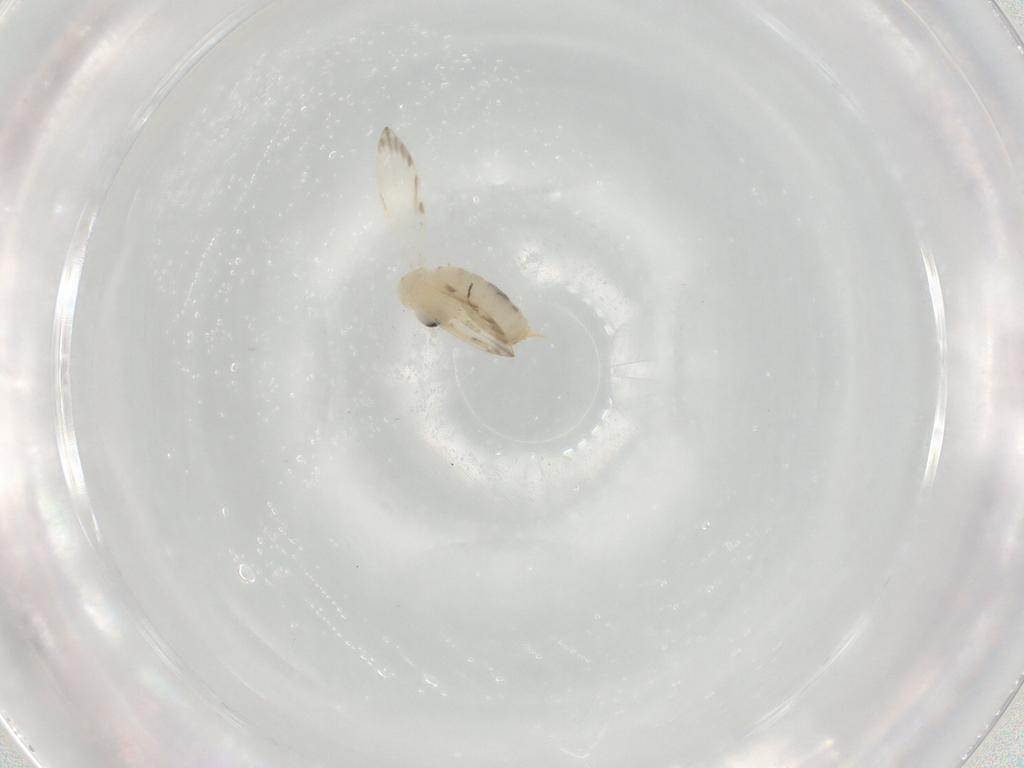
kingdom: Animalia
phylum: Arthropoda
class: Insecta
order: Diptera
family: Psychodidae
